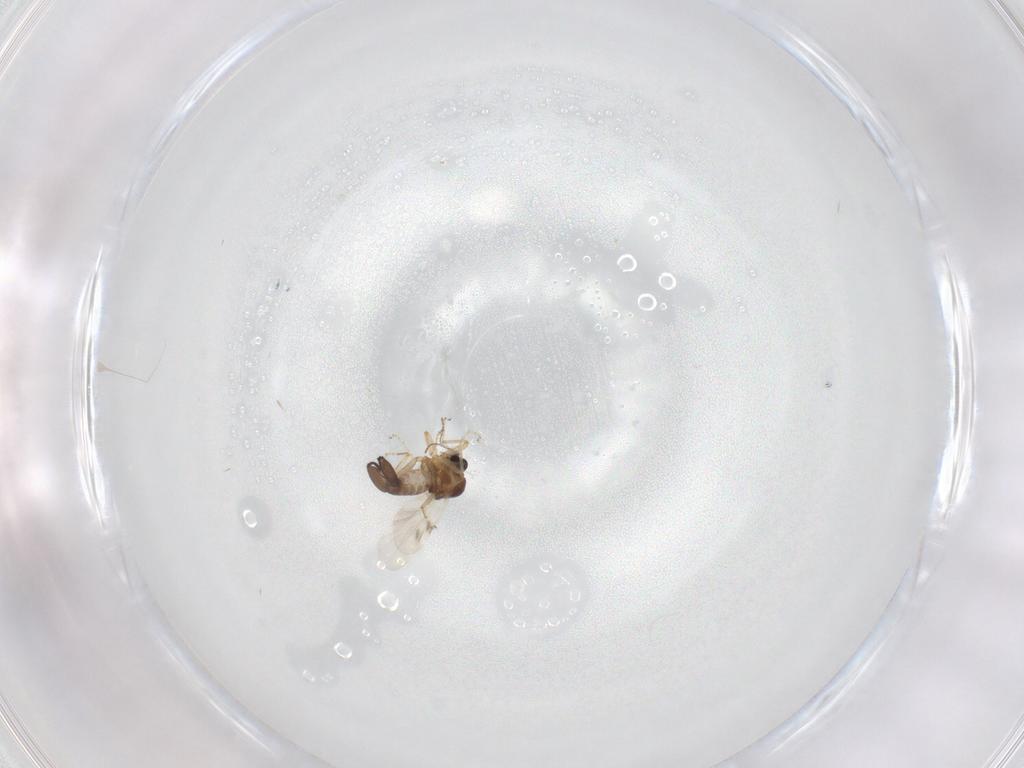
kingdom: Animalia
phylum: Arthropoda
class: Insecta
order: Diptera
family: Ceratopogonidae
